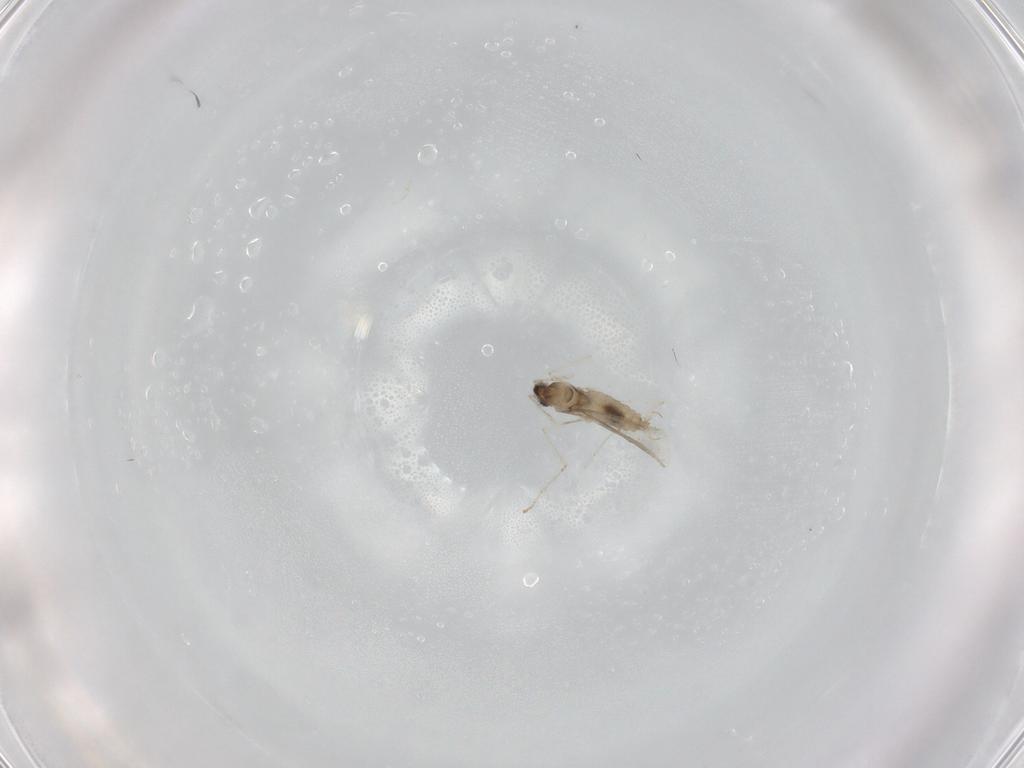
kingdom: Animalia
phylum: Arthropoda
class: Insecta
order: Diptera
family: Cecidomyiidae
